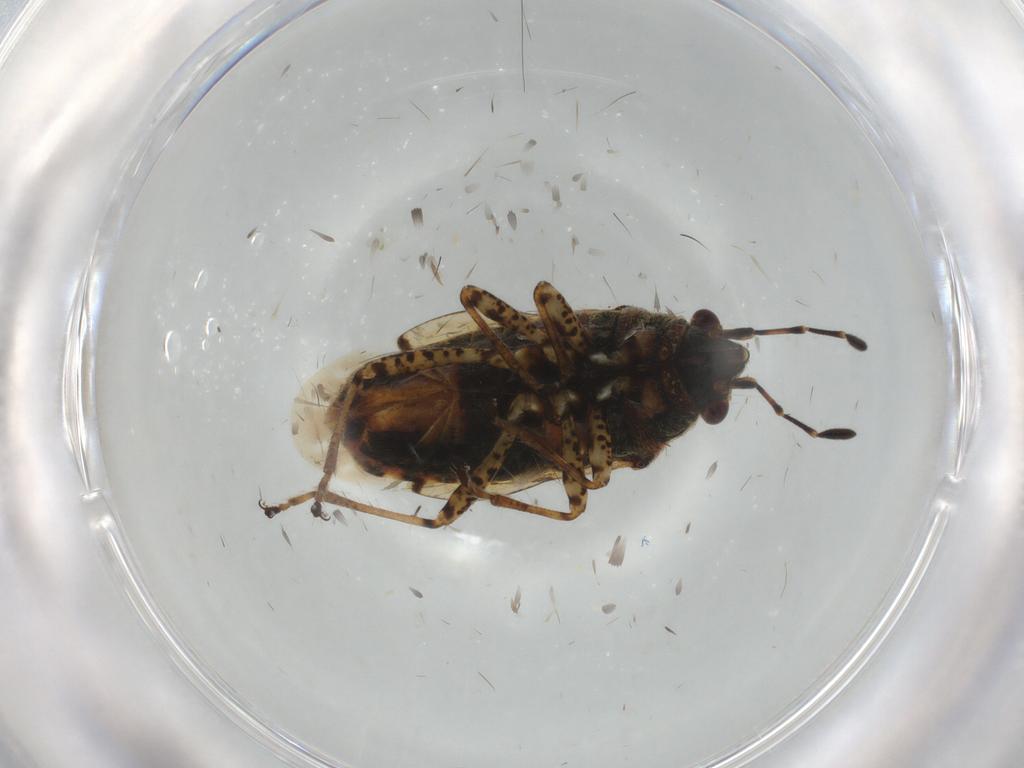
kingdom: Animalia
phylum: Arthropoda
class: Insecta
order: Hemiptera
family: Lygaeidae
